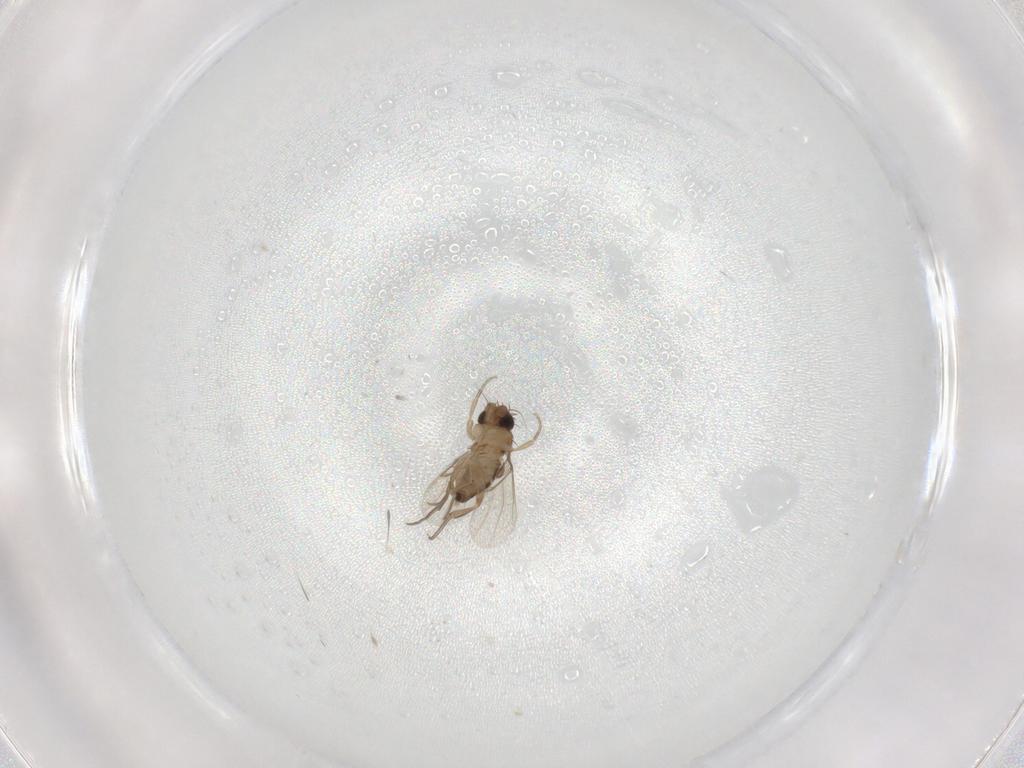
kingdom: Animalia
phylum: Arthropoda
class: Insecta
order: Diptera
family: Phoridae
